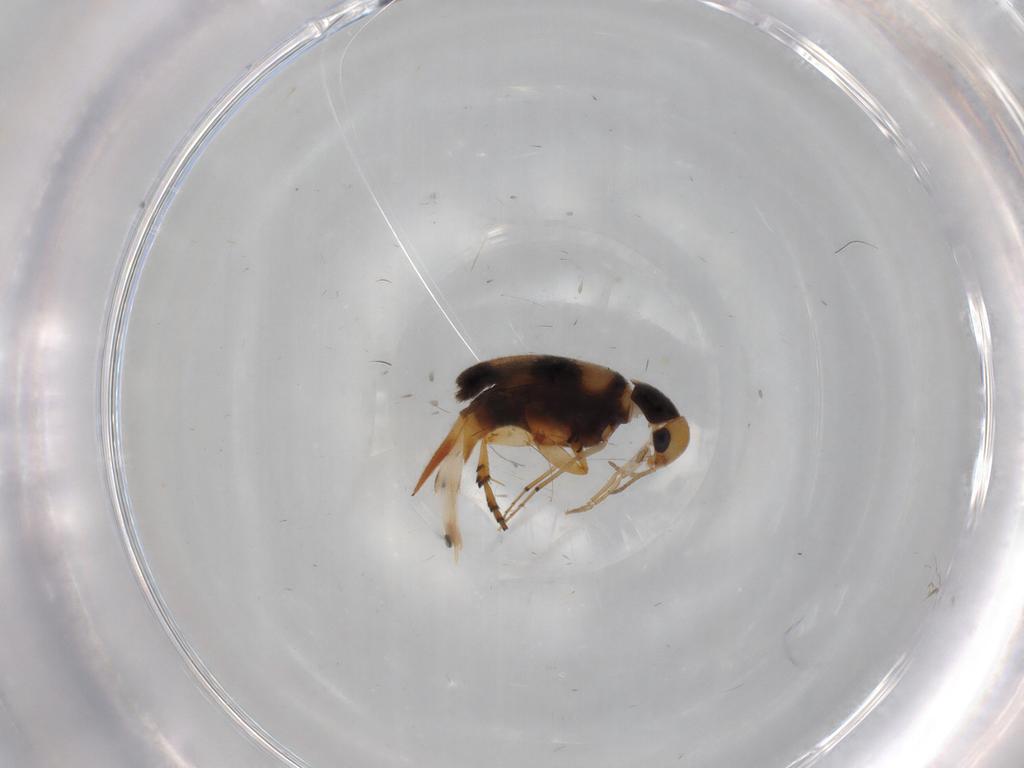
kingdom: Animalia
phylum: Arthropoda
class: Insecta
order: Coleoptera
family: Mordellidae
